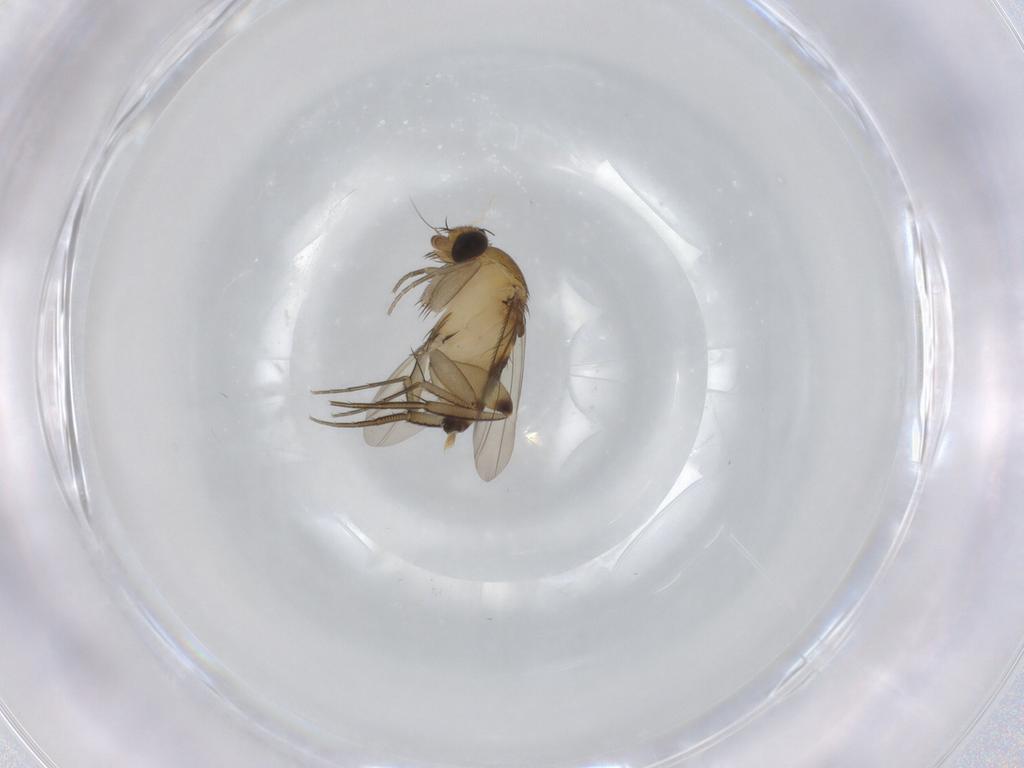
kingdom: Animalia
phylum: Arthropoda
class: Insecta
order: Diptera
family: Phoridae
